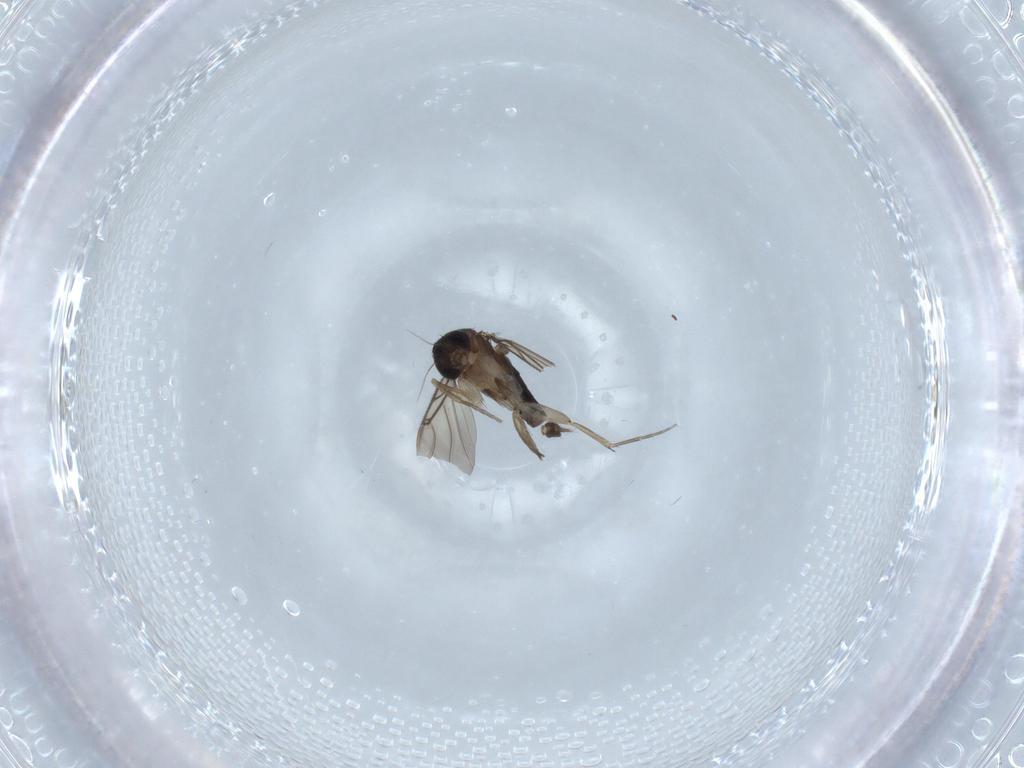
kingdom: Animalia
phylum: Arthropoda
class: Insecta
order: Diptera
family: Phoridae
